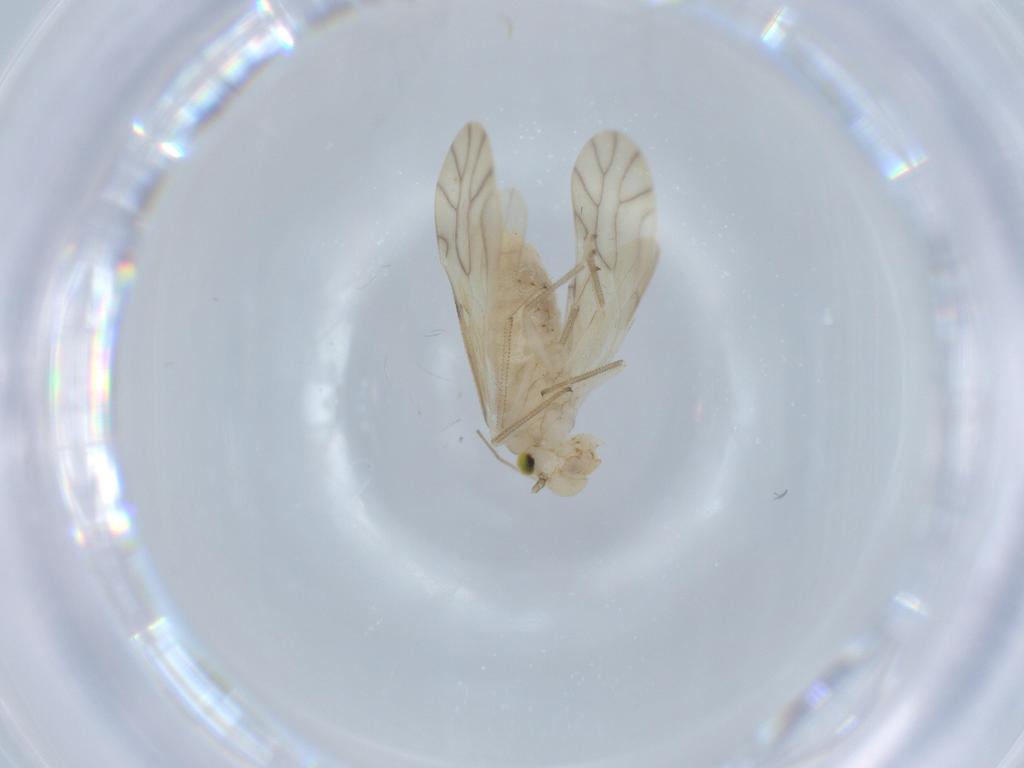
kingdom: Animalia
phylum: Arthropoda
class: Insecta
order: Psocodea
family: Caeciliusidae
